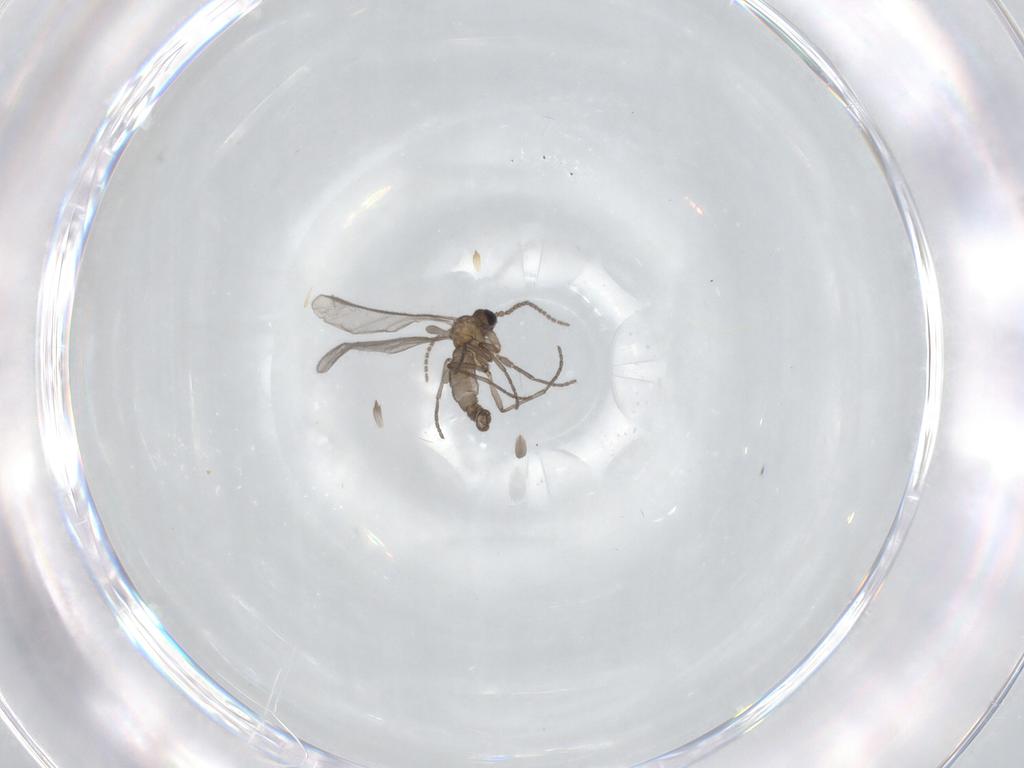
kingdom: Animalia
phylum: Arthropoda
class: Insecta
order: Diptera
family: Sciaridae
